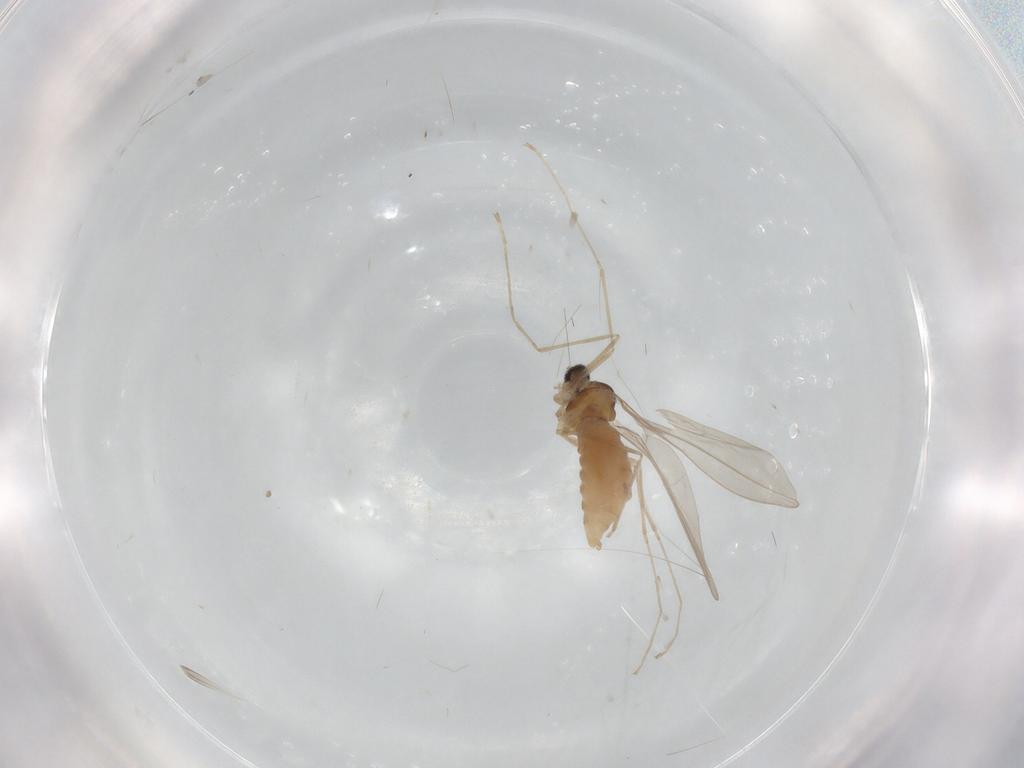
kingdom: Animalia
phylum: Arthropoda
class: Insecta
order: Diptera
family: Cecidomyiidae
